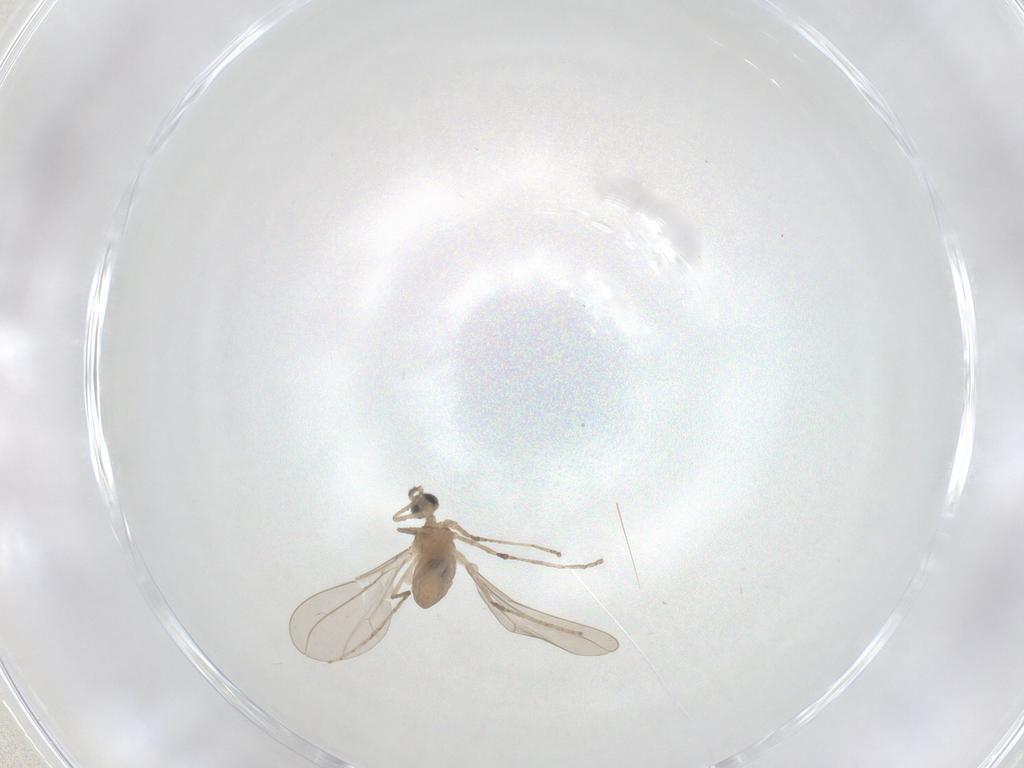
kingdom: Animalia
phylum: Arthropoda
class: Insecta
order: Diptera
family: Cecidomyiidae
